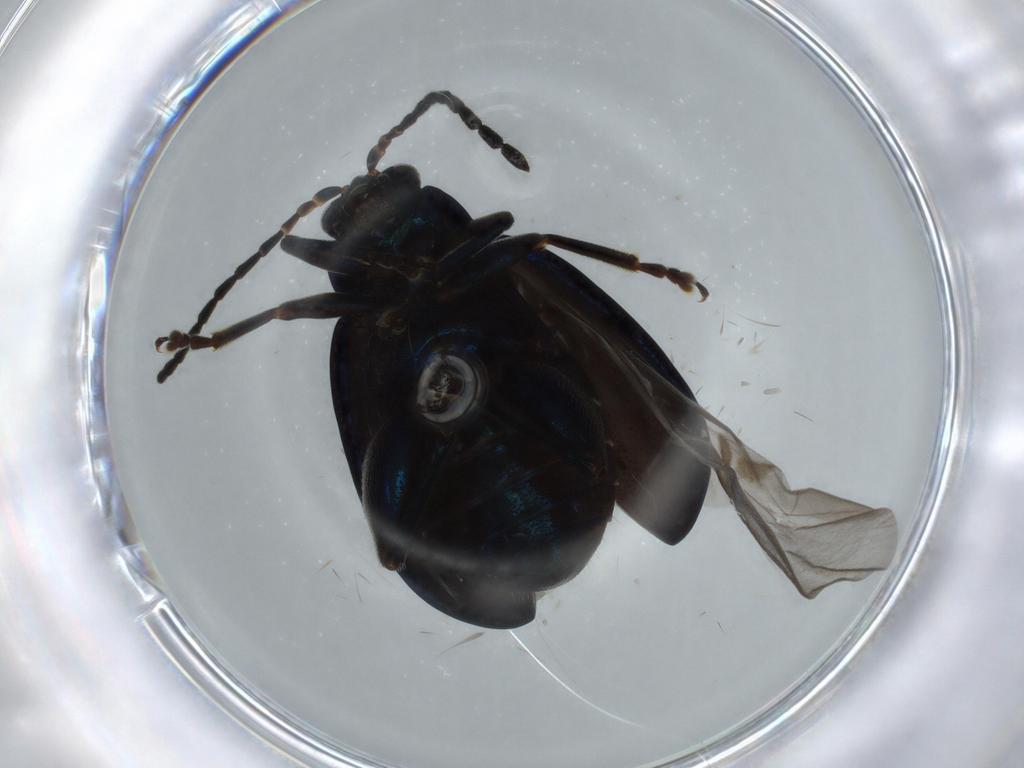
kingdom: Animalia
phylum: Arthropoda
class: Insecta
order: Coleoptera
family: Chrysomelidae
